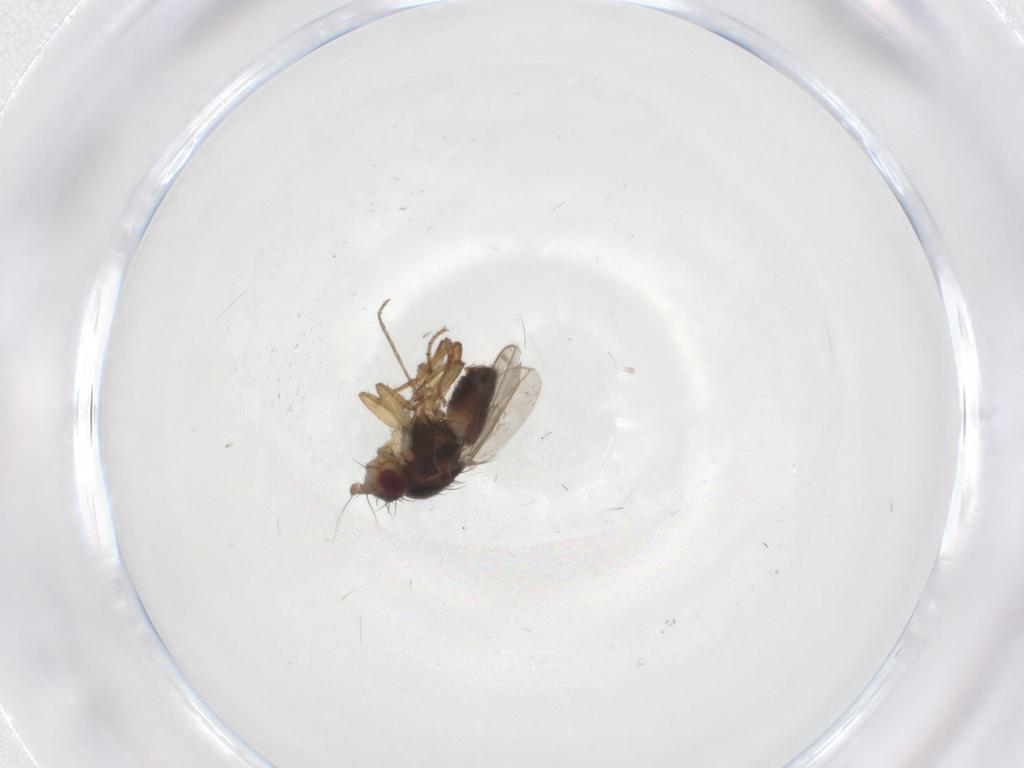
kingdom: Animalia
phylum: Arthropoda
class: Insecta
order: Diptera
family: Sphaeroceridae
